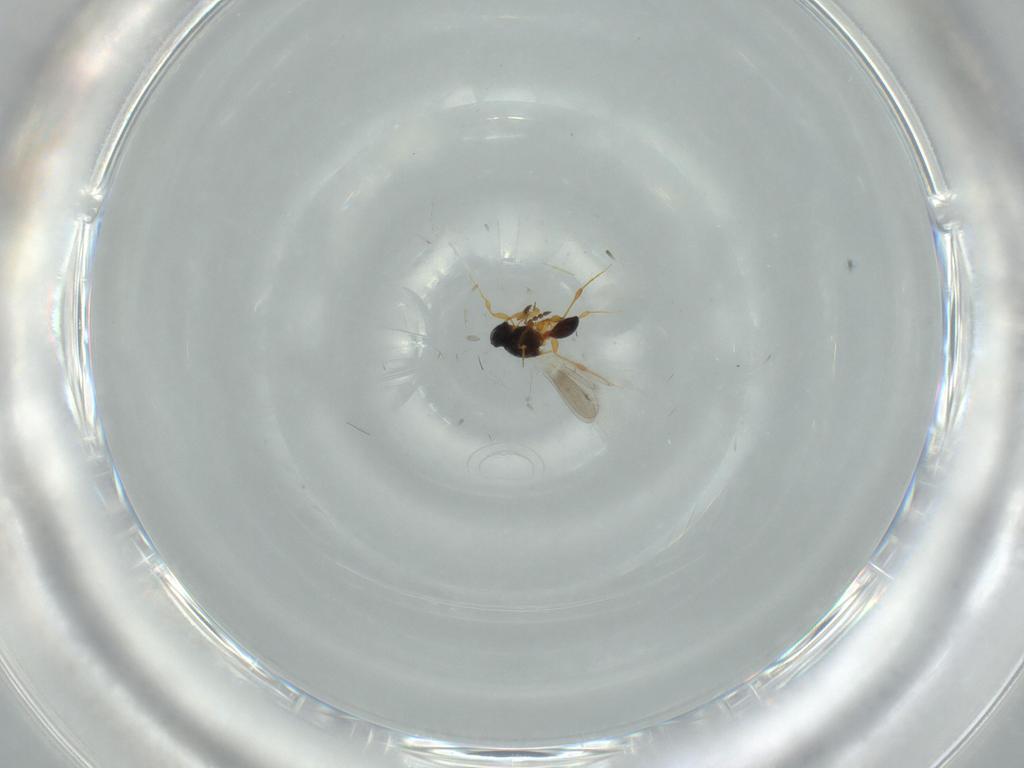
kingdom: Animalia
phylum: Arthropoda
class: Insecta
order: Hymenoptera
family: Platygastridae
